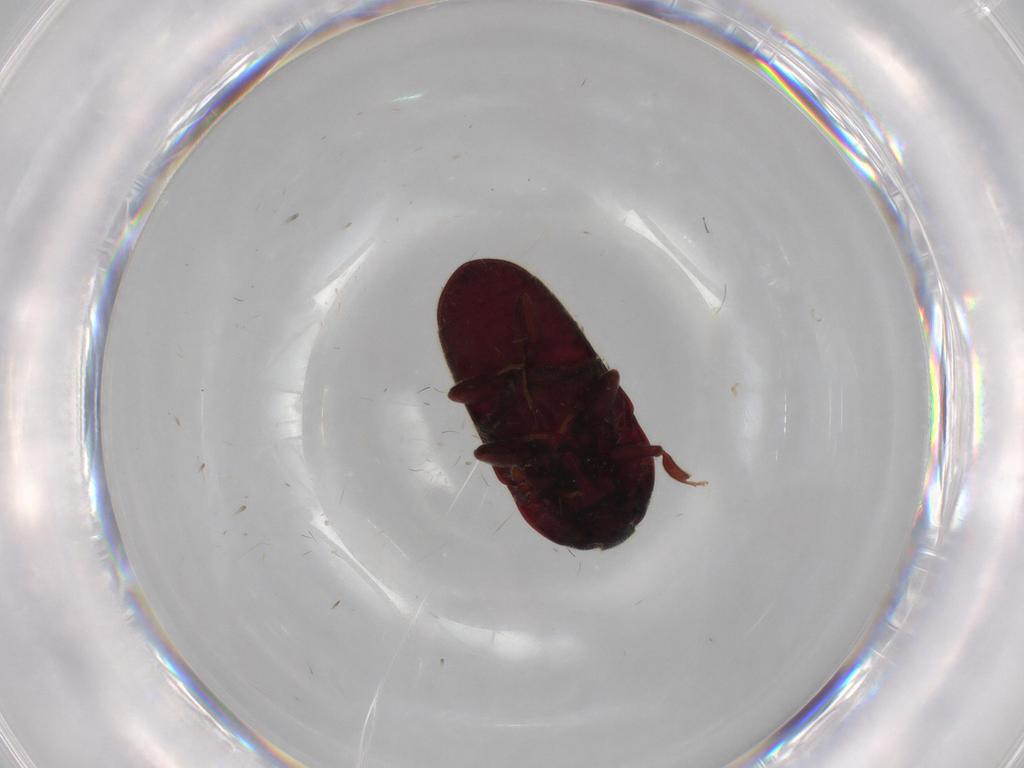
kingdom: Animalia
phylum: Arthropoda
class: Insecta
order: Coleoptera
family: Throscidae
